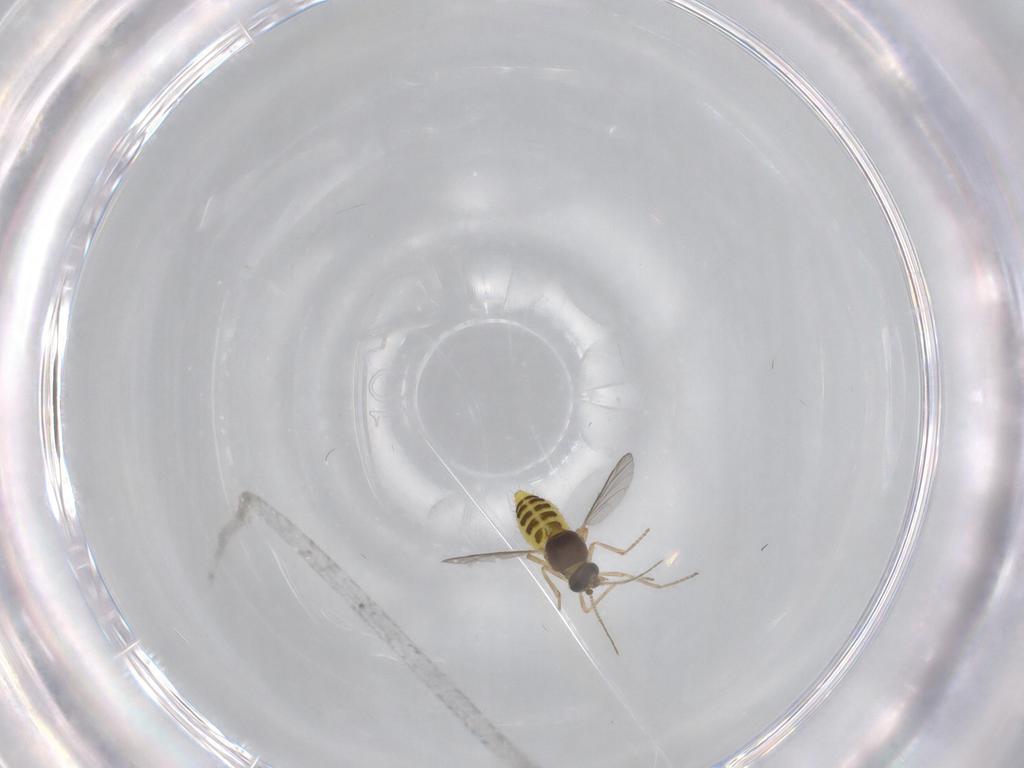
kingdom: Animalia
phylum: Arthropoda
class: Insecta
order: Diptera
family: Ceratopogonidae
